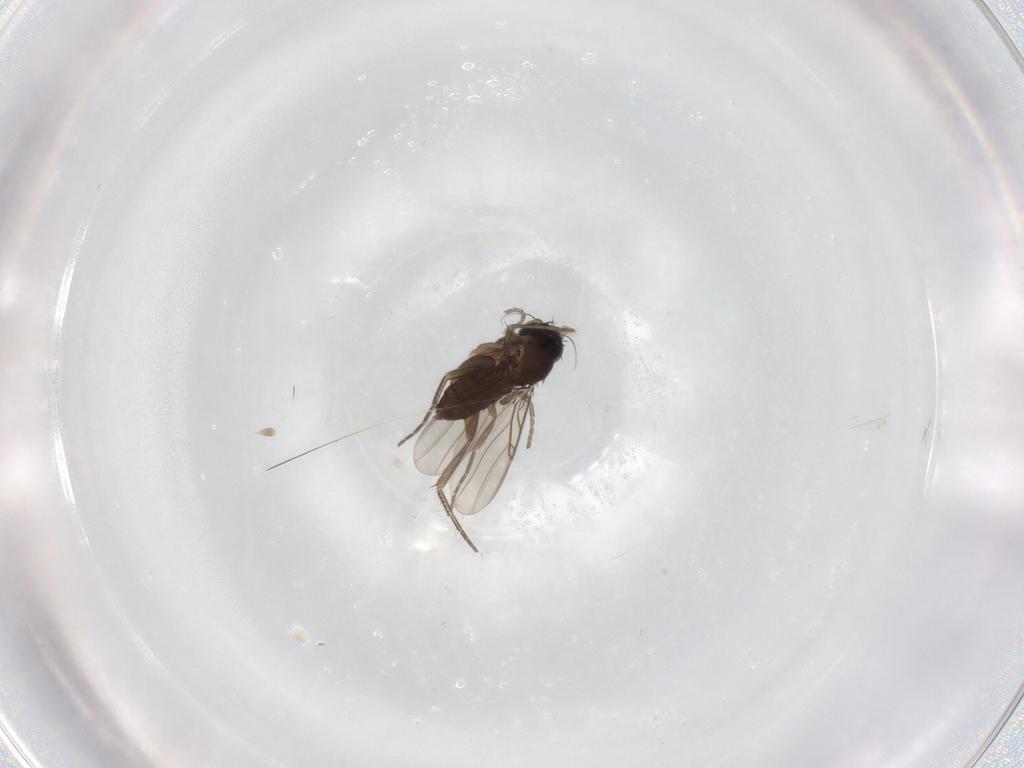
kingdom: Animalia
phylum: Arthropoda
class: Insecta
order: Diptera
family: Phoridae
